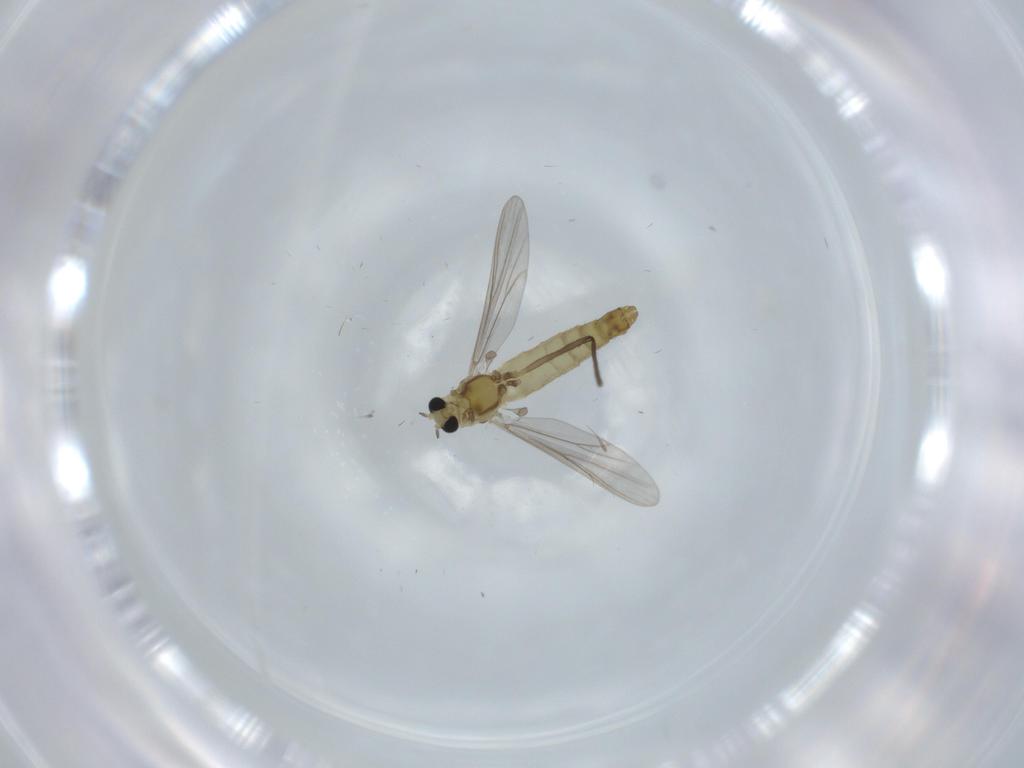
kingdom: Animalia
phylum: Arthropoda
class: Insecta
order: Diptera
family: Chironomidae
